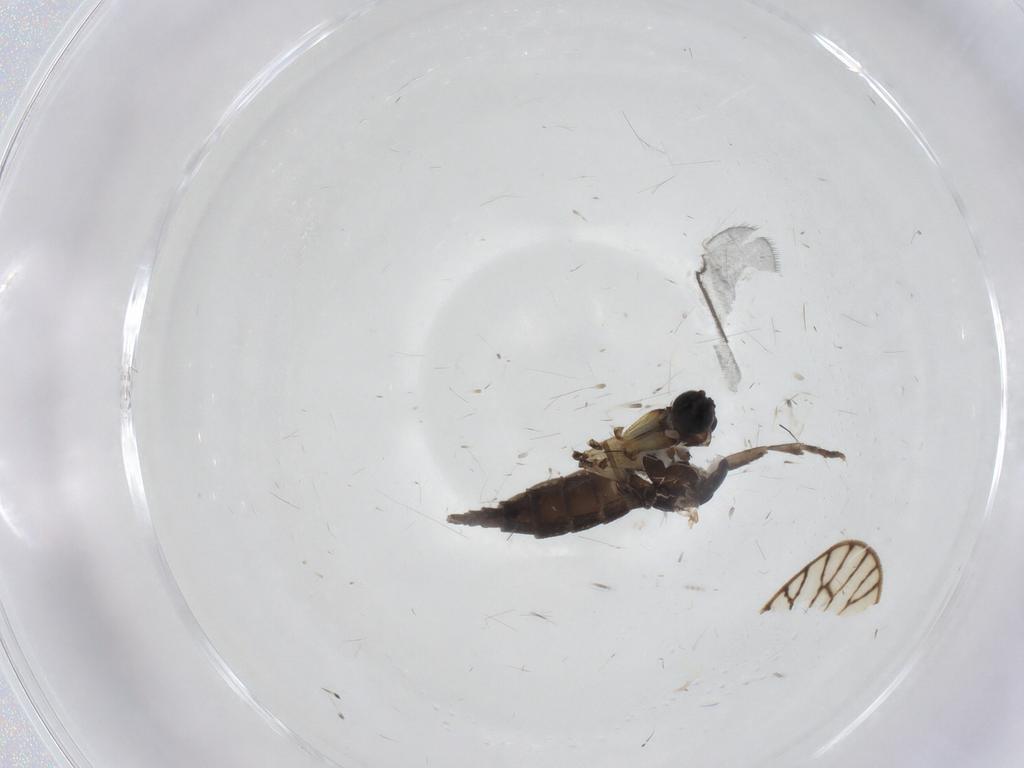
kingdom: Animalia
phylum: Arthropoda
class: Insecta
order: Diptera
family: Sciaridae
